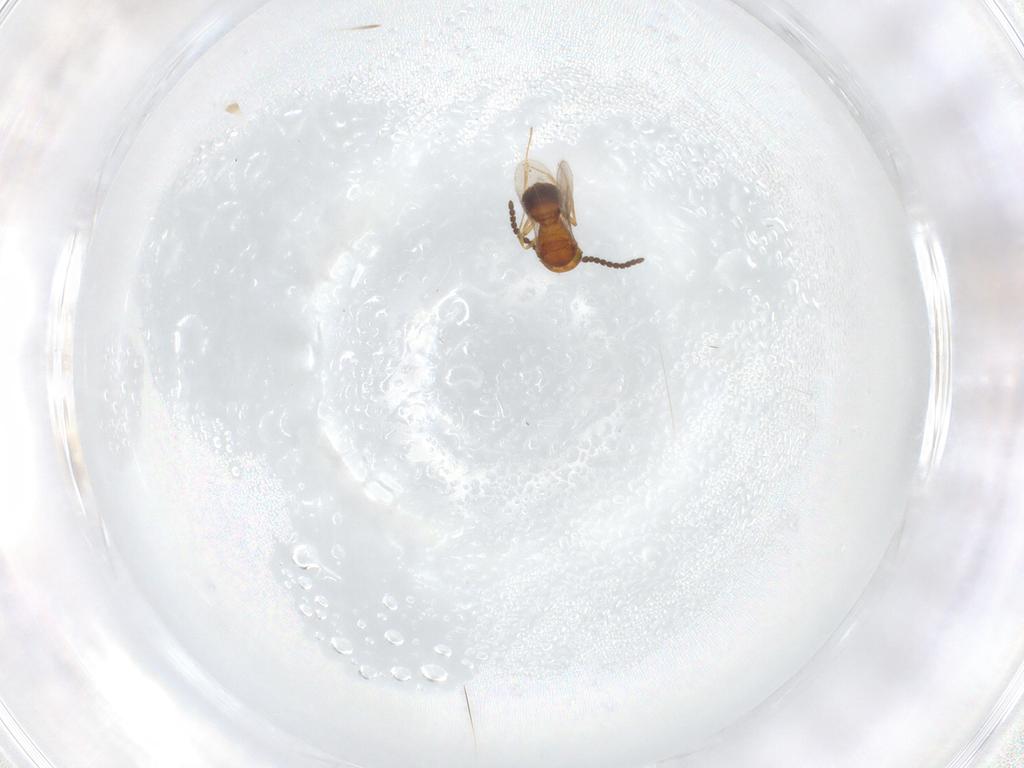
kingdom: Animalia
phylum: Arthropoda
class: Insecta
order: Hymenoptera
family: Scelionidae
